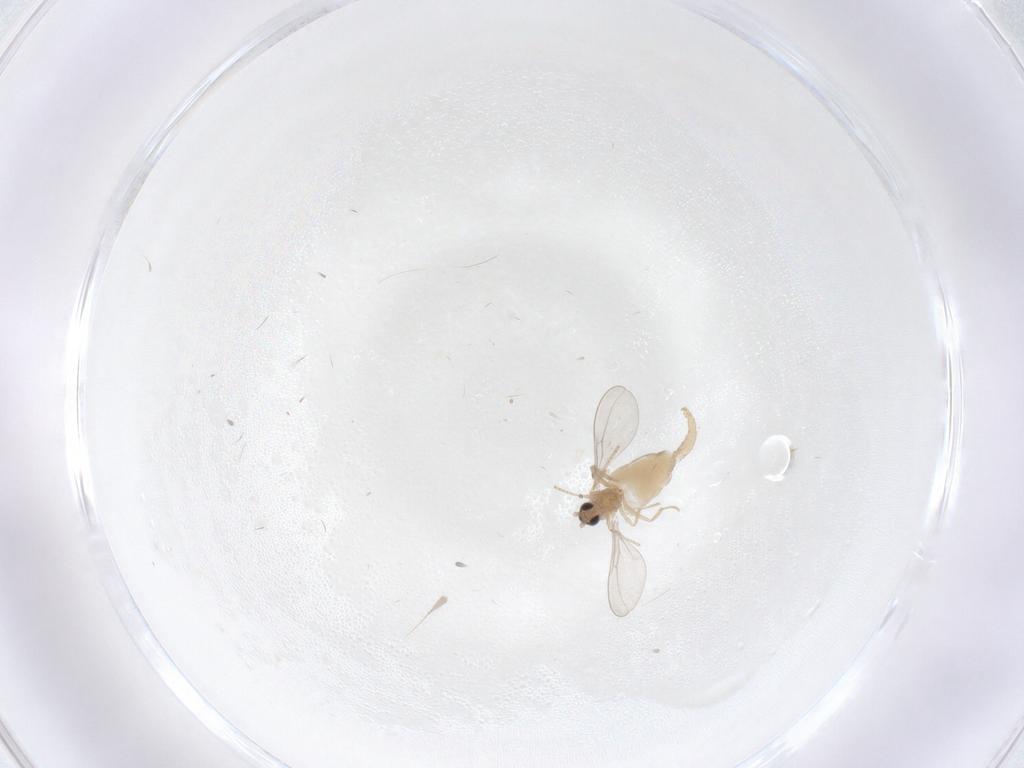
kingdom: Animalia
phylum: Arthropoda
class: Insecta
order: Diptera
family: Cecidomyiidae
